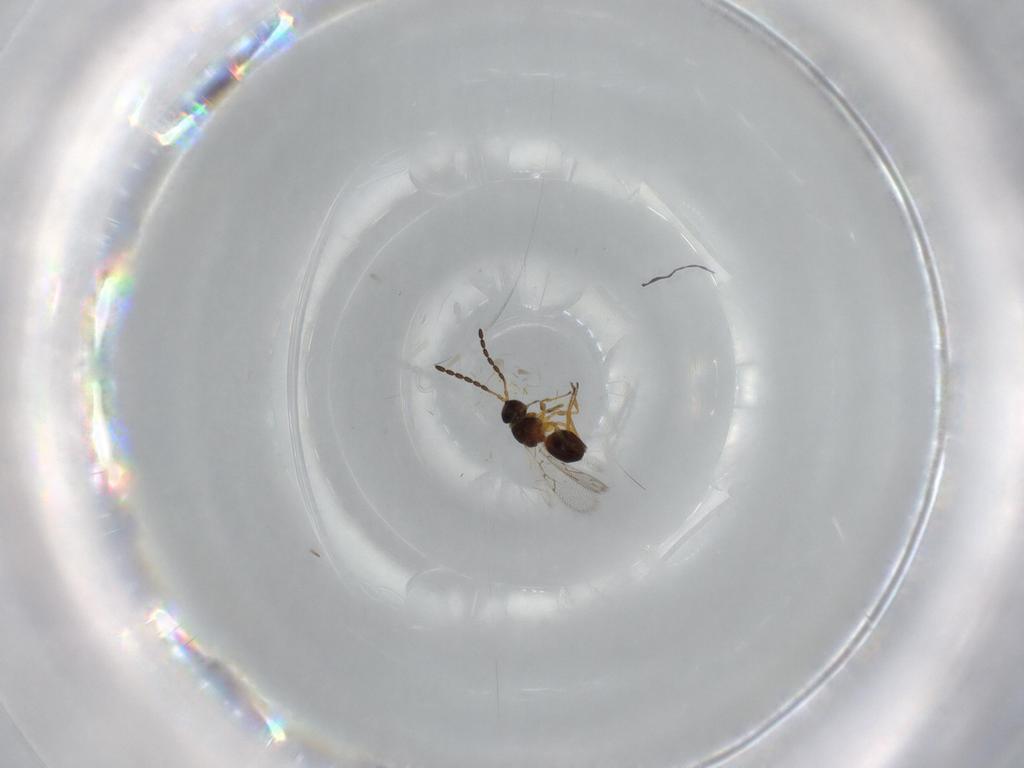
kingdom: Animalia
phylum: Arthropoda
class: Insecta
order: Hymenoptera
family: Figitidae
